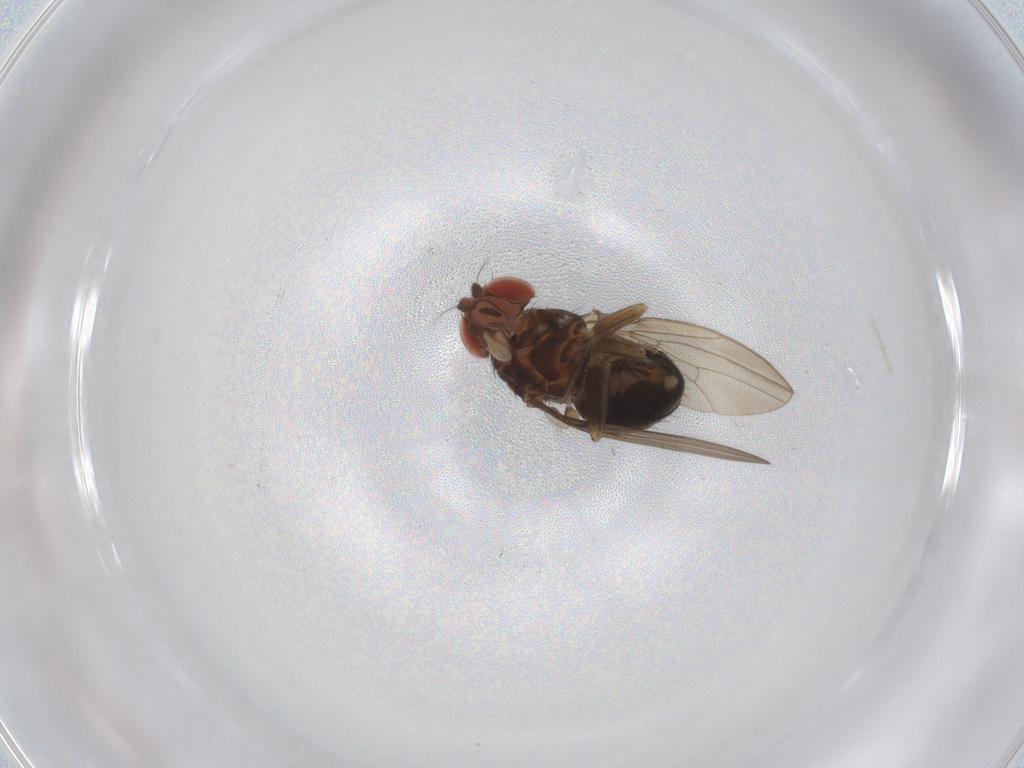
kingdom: Animalia
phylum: Arthropoda
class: Insecta
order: Diptera
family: Drosophilidae
